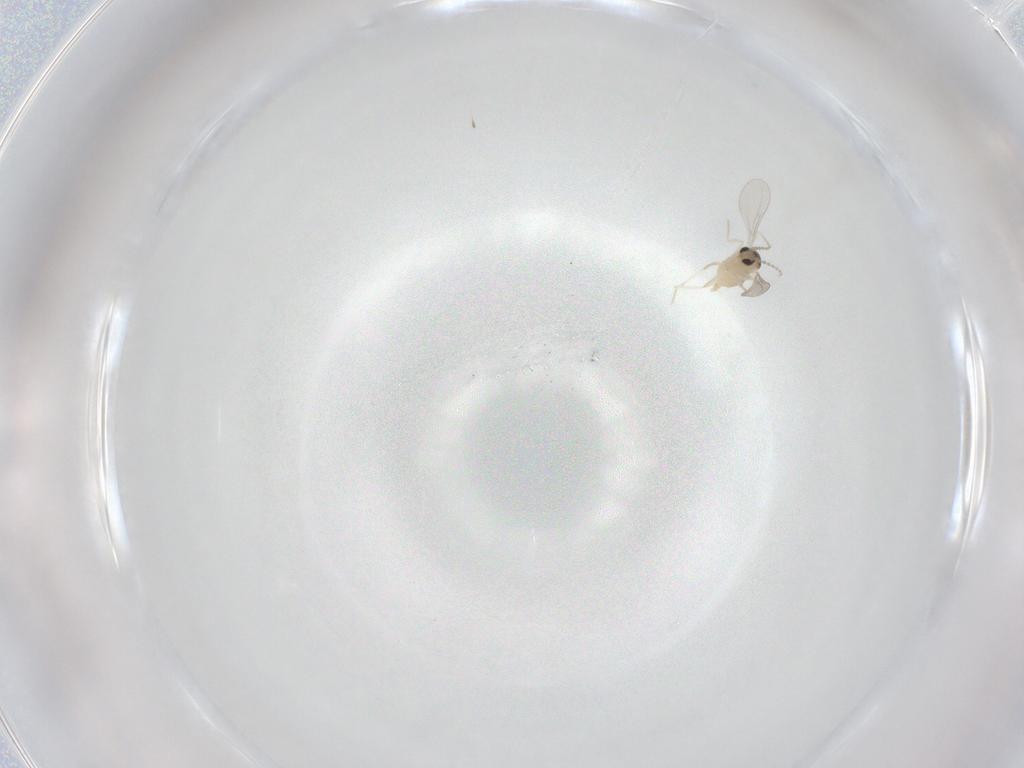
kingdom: Animalia
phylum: Arthropoda
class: Insecta
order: Diptera
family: Cecidomyiidae
